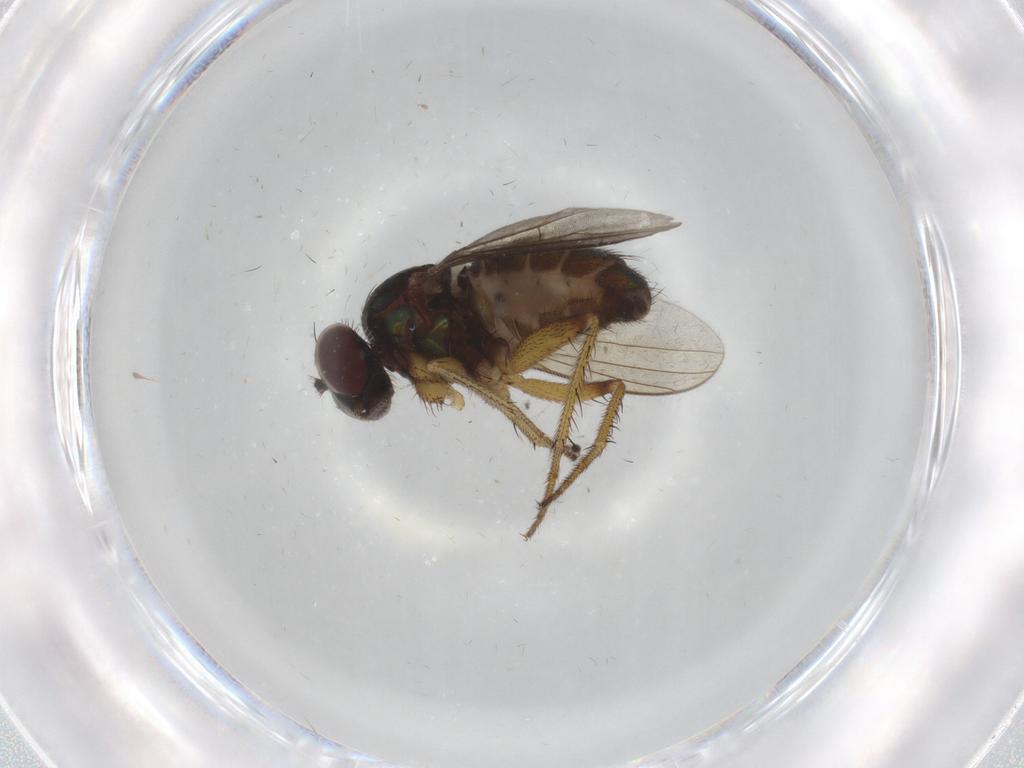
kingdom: Animalia
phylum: Arthropoda
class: Insecta
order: Diptera
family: Dolichopodidae
